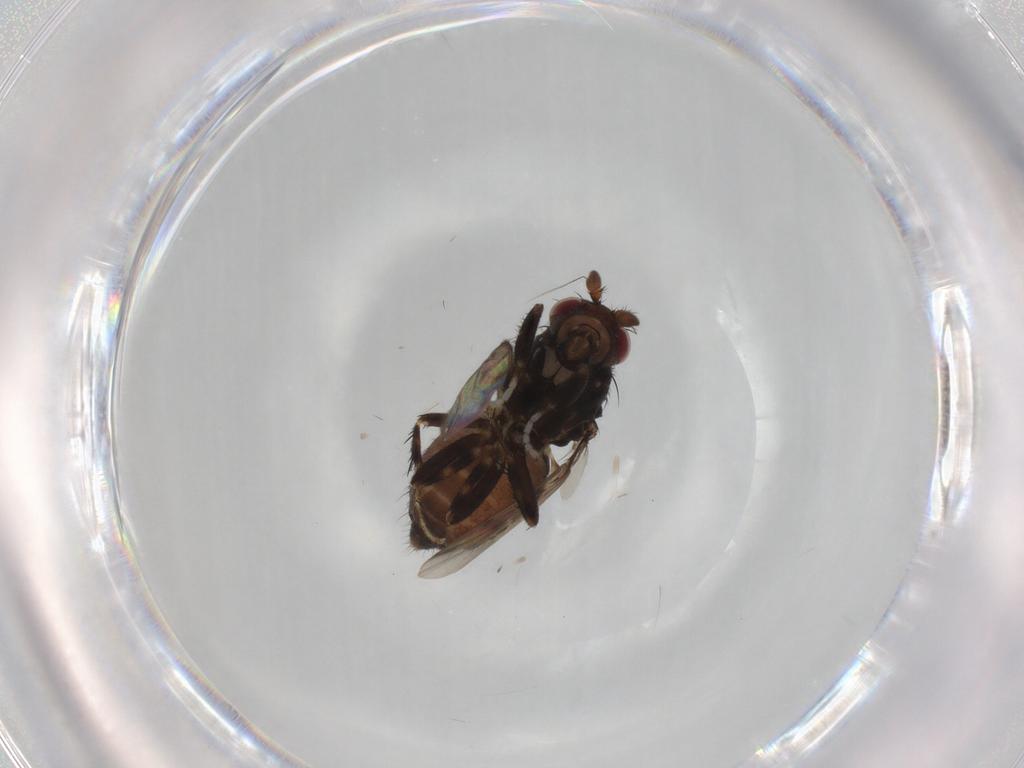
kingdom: Animalia
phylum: Arthropoda
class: Insecta
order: Diptera
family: Sphaeroceridae
